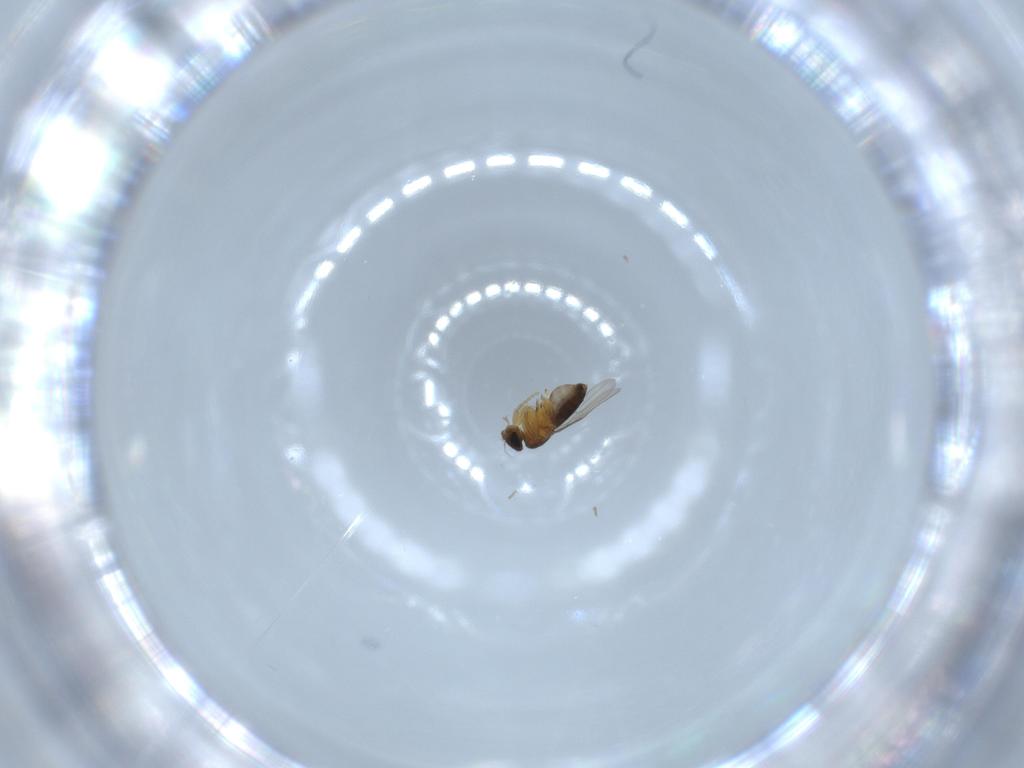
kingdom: Animalia
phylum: Arthropoda
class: Insecta
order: Diptera
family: Phoridae
